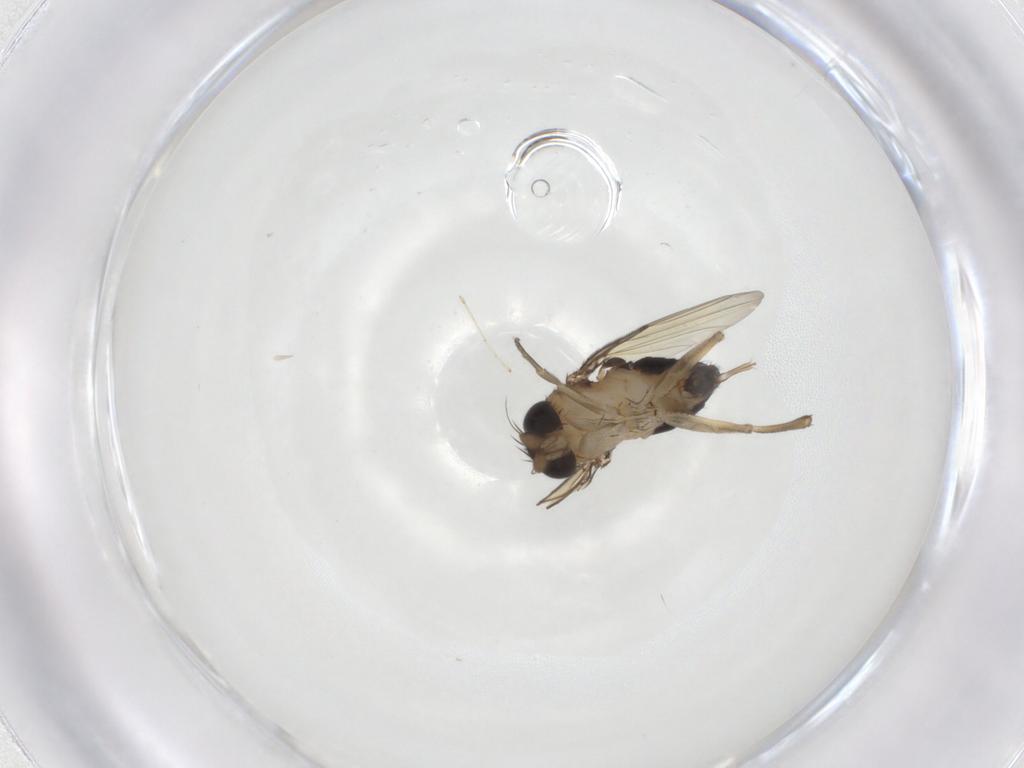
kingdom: Animalia
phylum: Arthropoda
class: Insecta
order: Diptera
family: Phoridae
